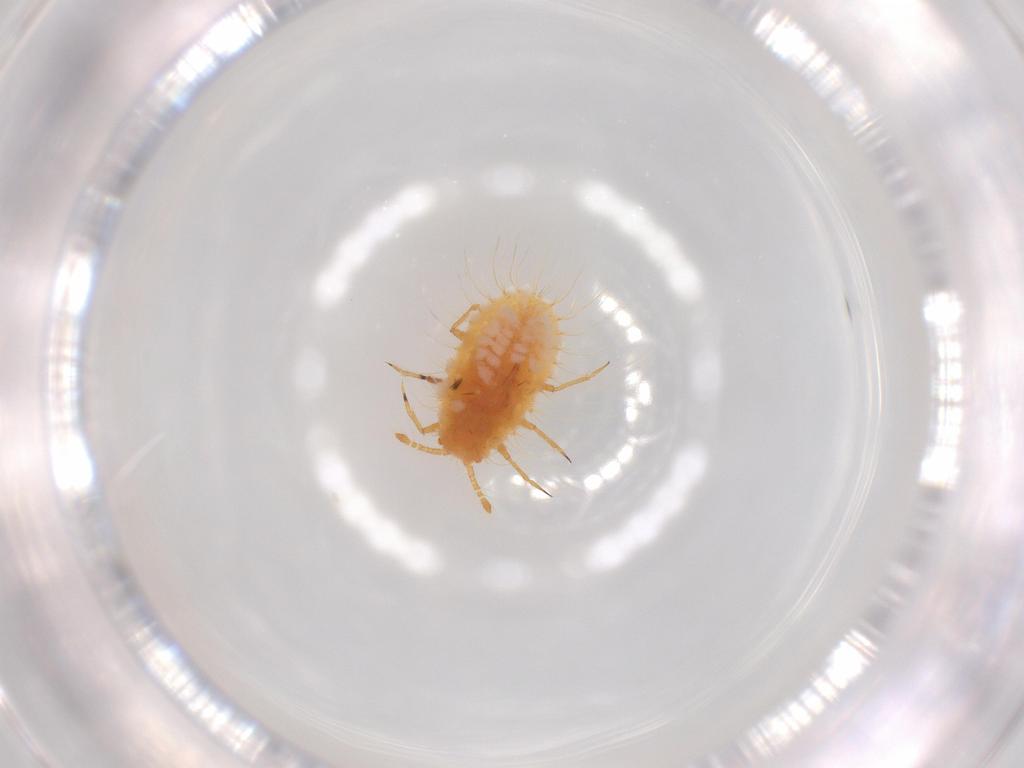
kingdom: Animalia
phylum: Arthropoda
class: Insecta
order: Hemiptera
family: Coccoidea_incertae_sedis
